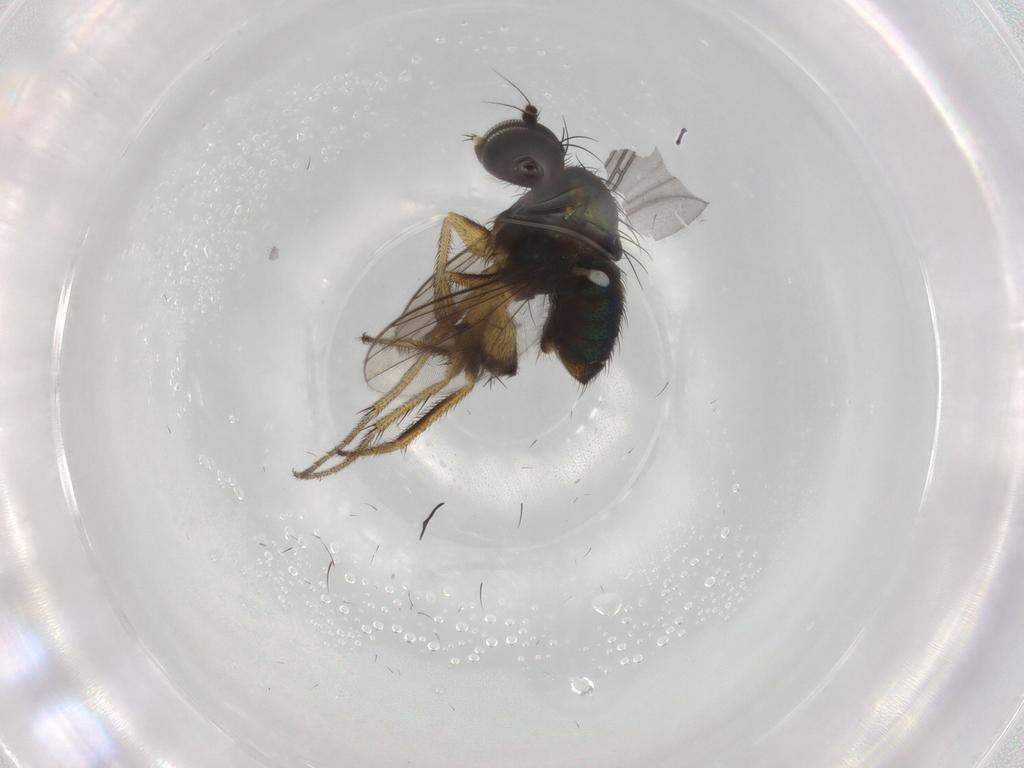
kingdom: Animalia
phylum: Arthropoda
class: Insecta
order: Diptera
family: Dolichopodidae
